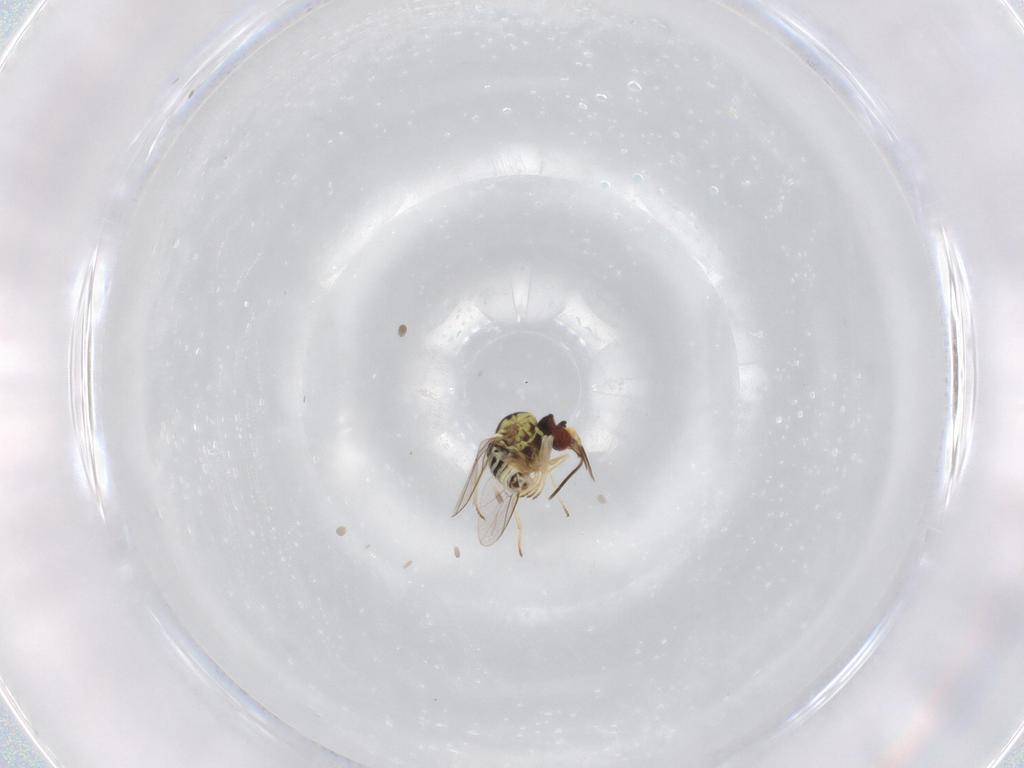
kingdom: Animalia
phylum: Arthropoda
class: Insecta
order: Diptera
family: Bombyliidae
